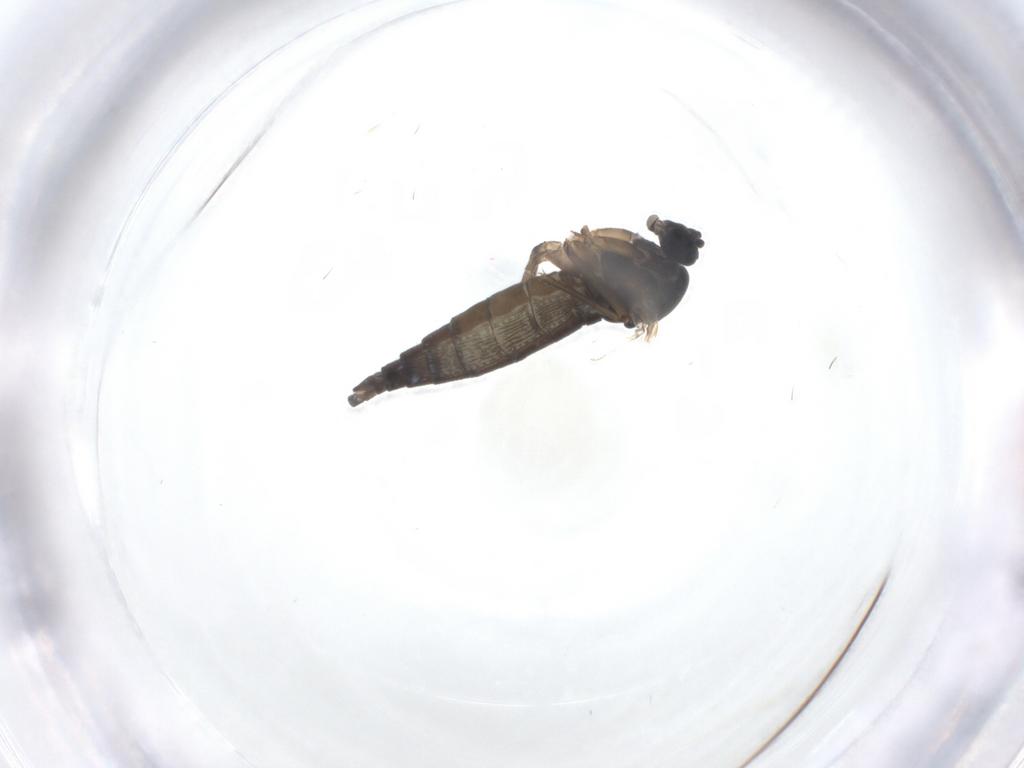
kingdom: Animalia
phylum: Arthropoda
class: Insecta
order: Diptera
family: Sciaridae
